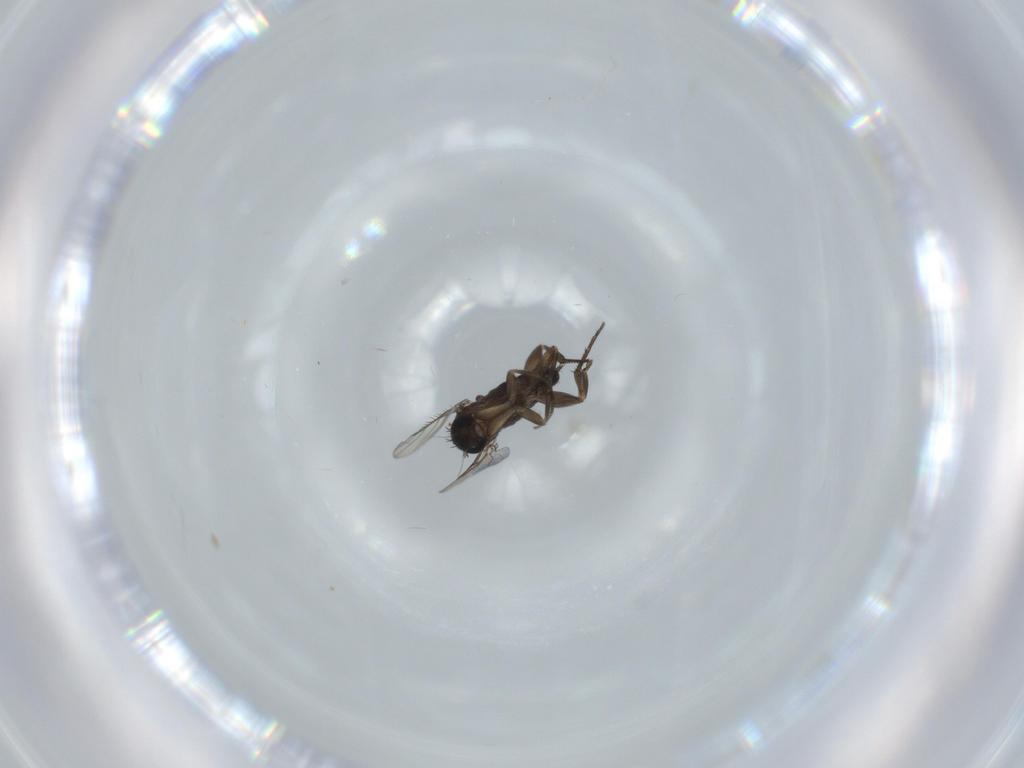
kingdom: Animalia
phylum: Arthropoda
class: Insecta
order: Diptera
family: Phoridae
